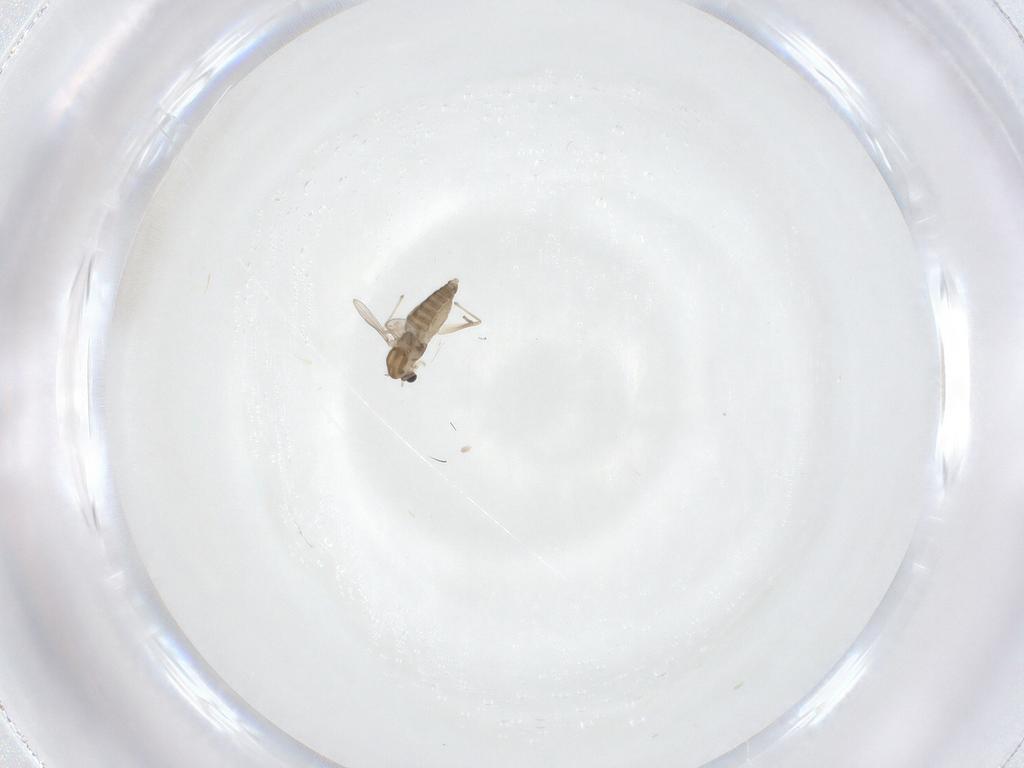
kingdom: Animalia
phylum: Arthropoda
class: Insecta
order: Diptera
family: Chironomidae
